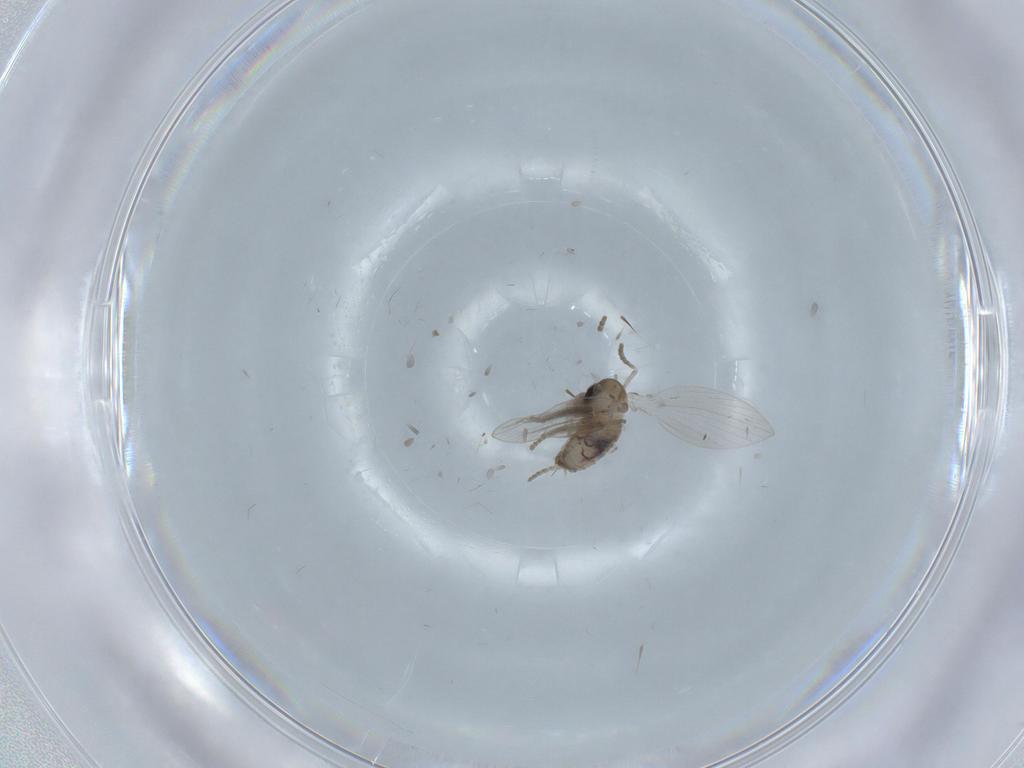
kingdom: Animalia
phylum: Arthropoda
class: Insecta
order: Diptera
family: Psychodidae
